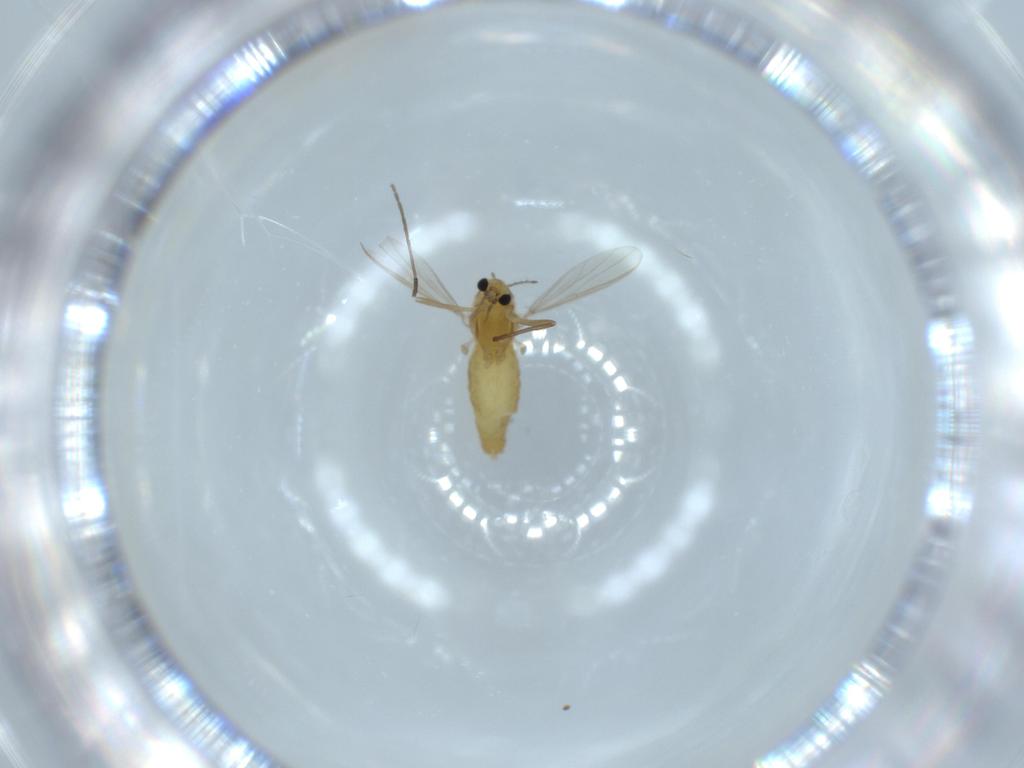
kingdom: Animalia
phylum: Arthropoda
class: Insecta
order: Diptera
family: Chironomidae
